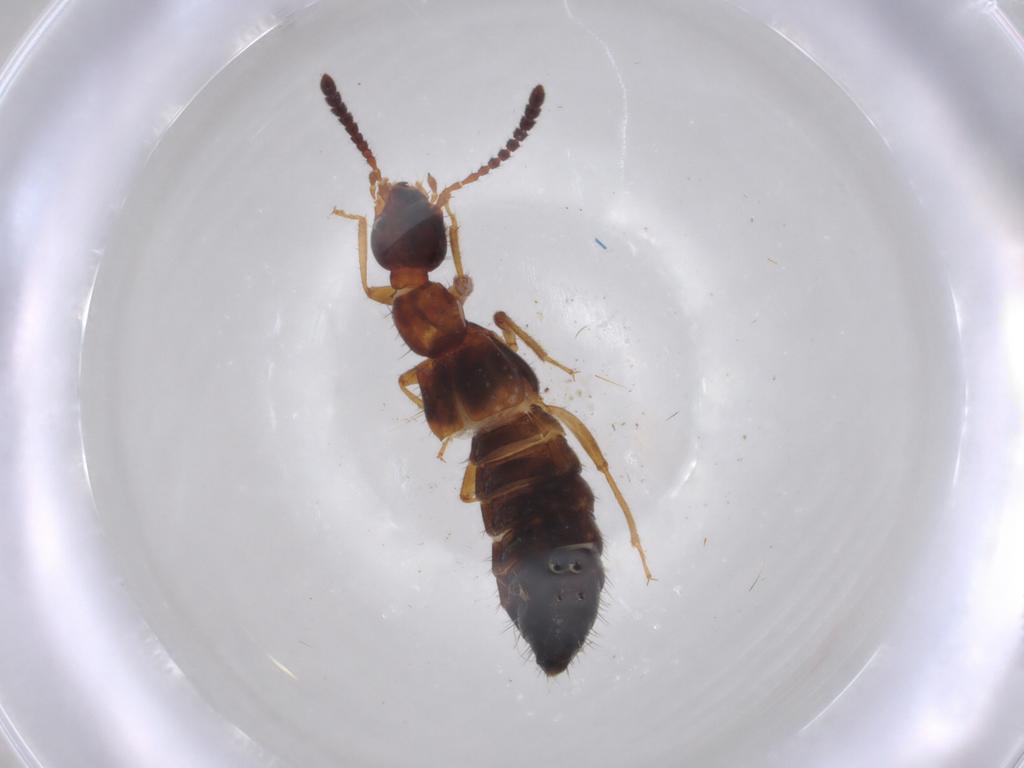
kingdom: Animalia
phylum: Arthropoda
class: Insecta
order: Coleoptera
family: Staphylinidae
